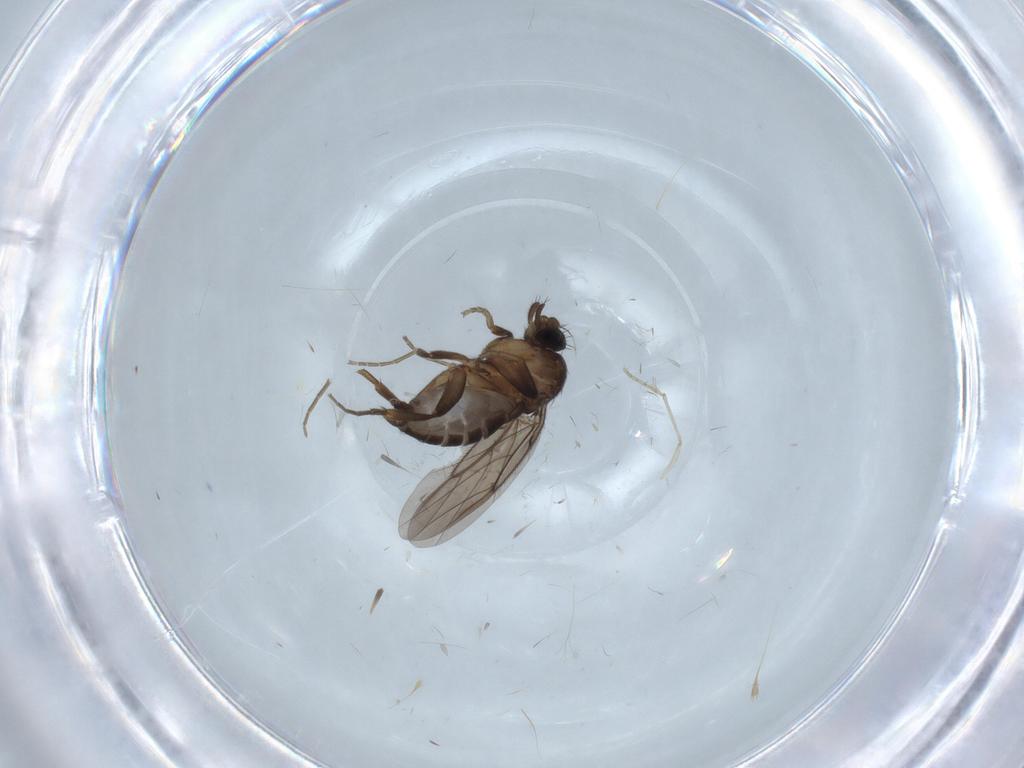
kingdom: Animalia
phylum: Arthropoda
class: Insecta
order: Diptera
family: Phoridae
